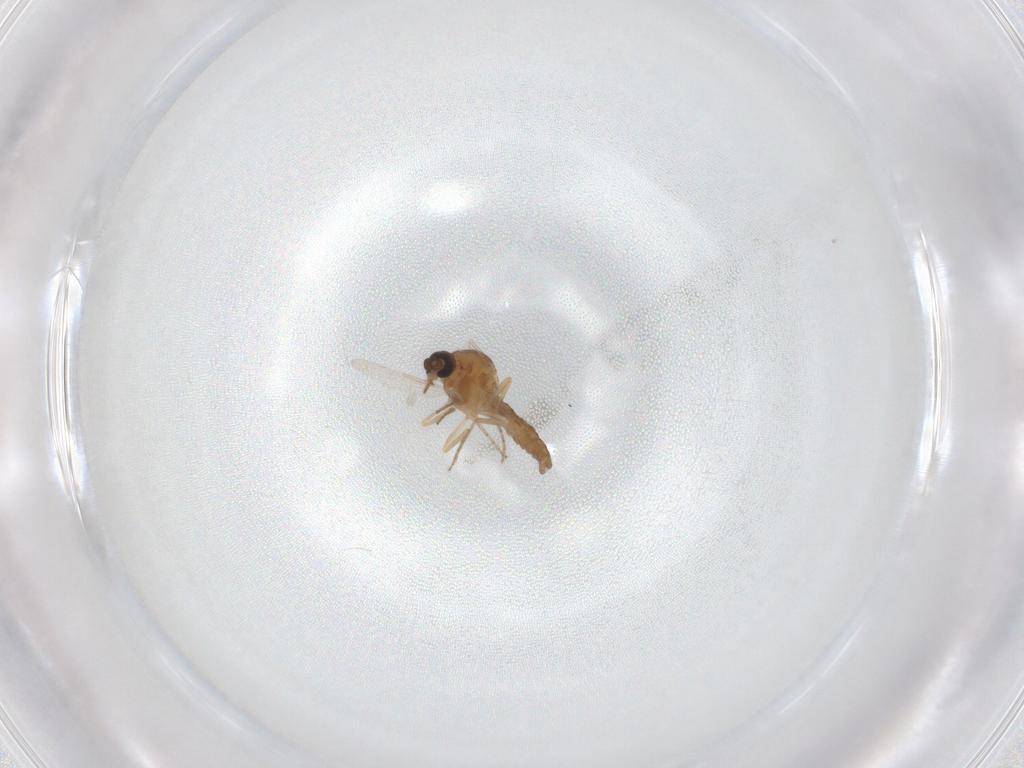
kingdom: Animalia
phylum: Arthropoda
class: Insecta
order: Diptera
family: Ceratopogonidae
